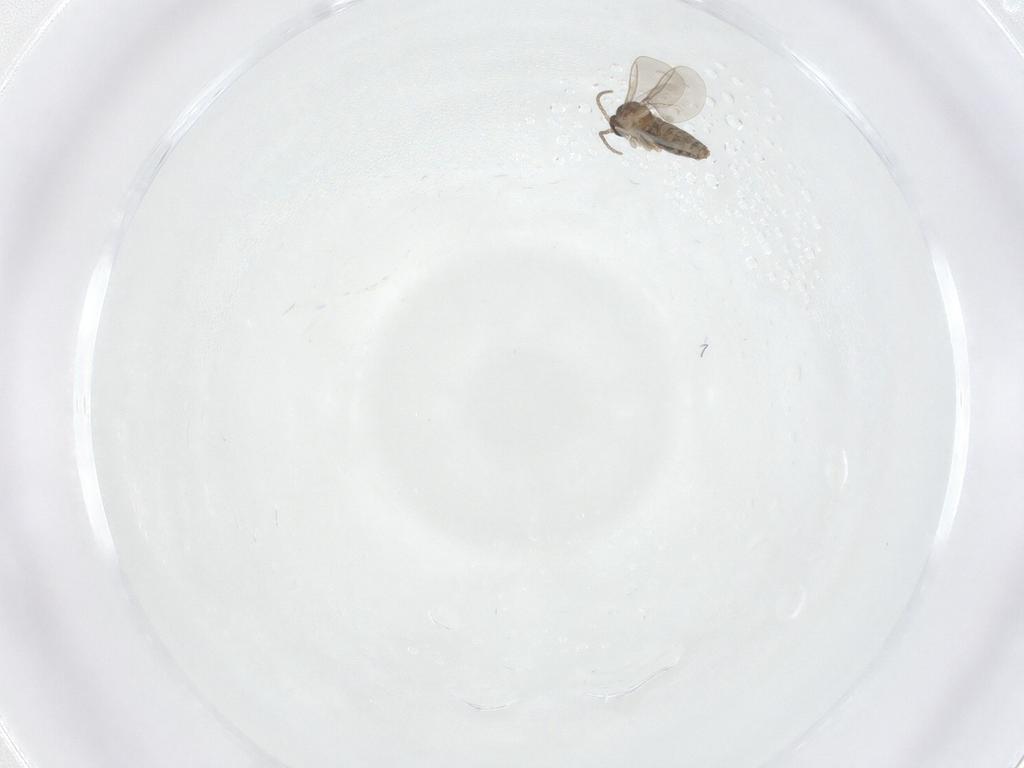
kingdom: Animalia
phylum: Arthropoda
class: Insecta
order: Diptera
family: Cecidomyiidae
